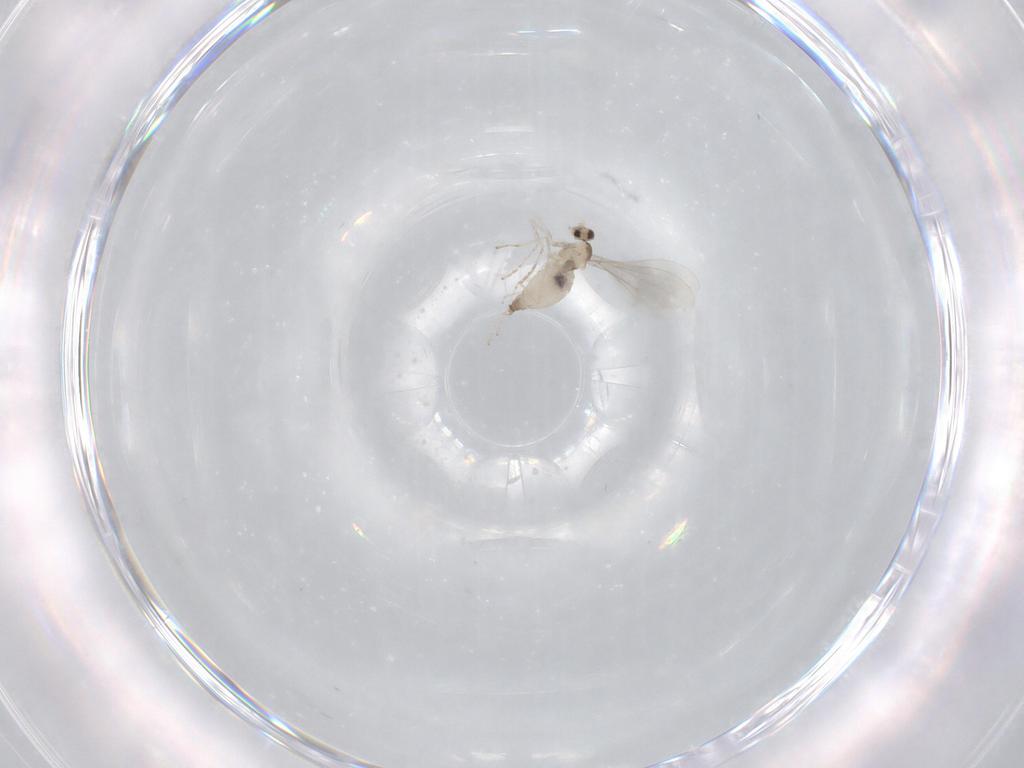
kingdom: Animalia
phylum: Arthropoda
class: Insecta
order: Diptera
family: Cecidomyiidae
